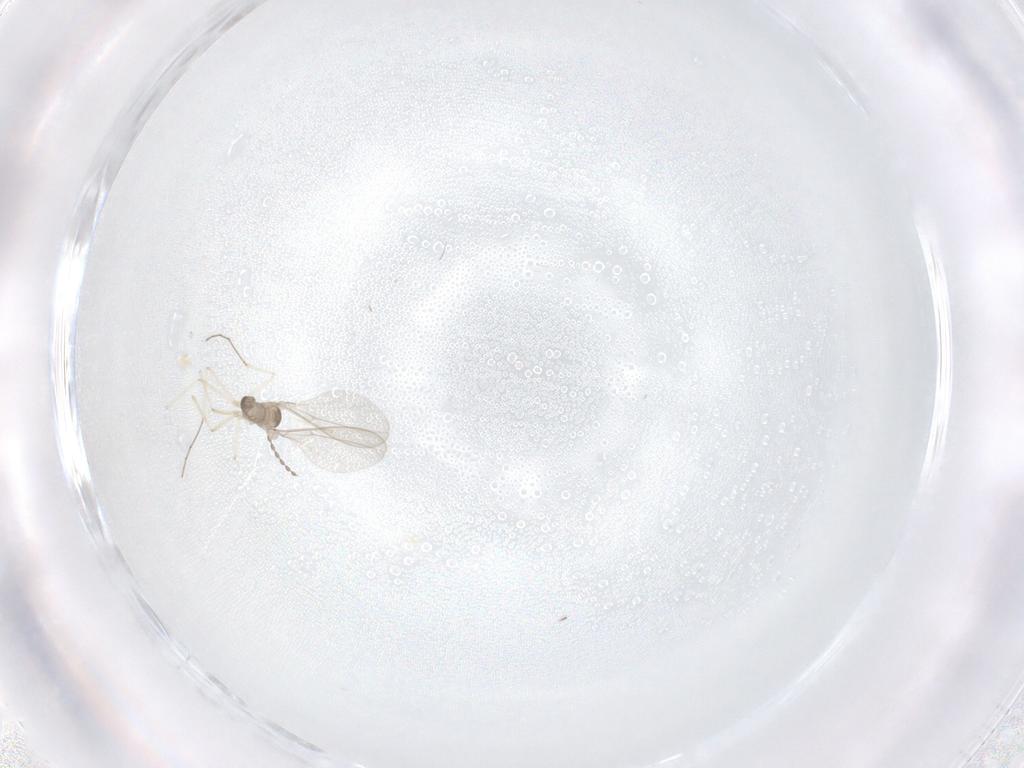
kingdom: Animalia
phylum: Arthropoda
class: Insecta
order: Diptera
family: Cecidomyiidae
